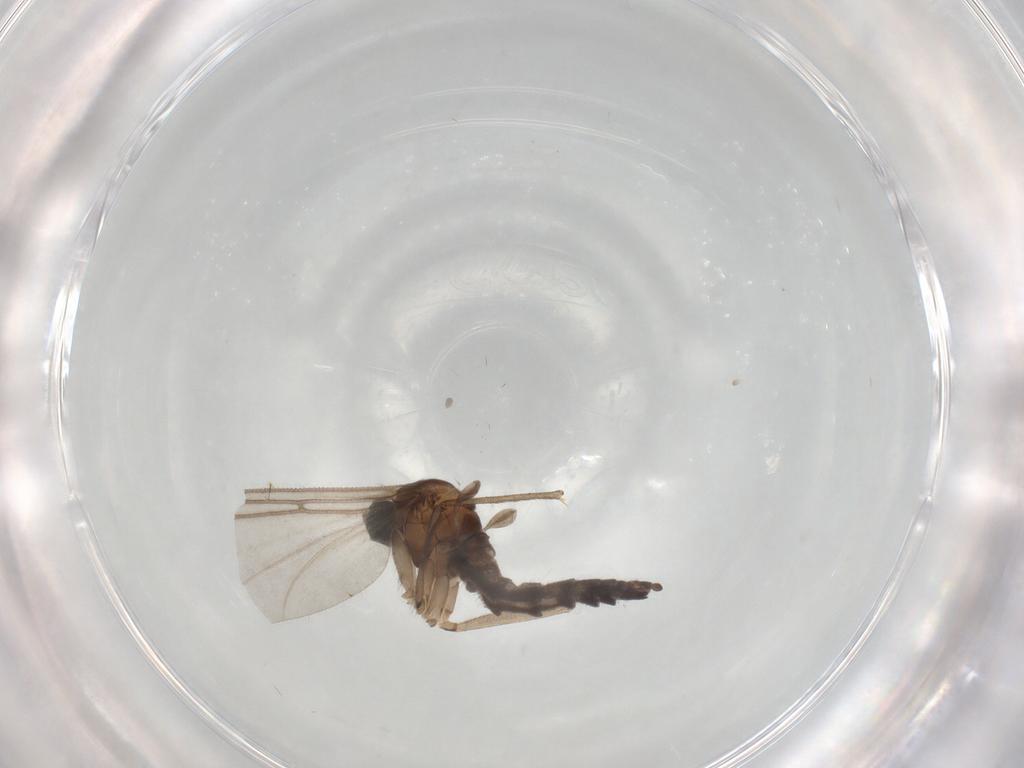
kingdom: Animalia
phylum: Arthropoda
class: Insecta
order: Diptera
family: Sciaridae
